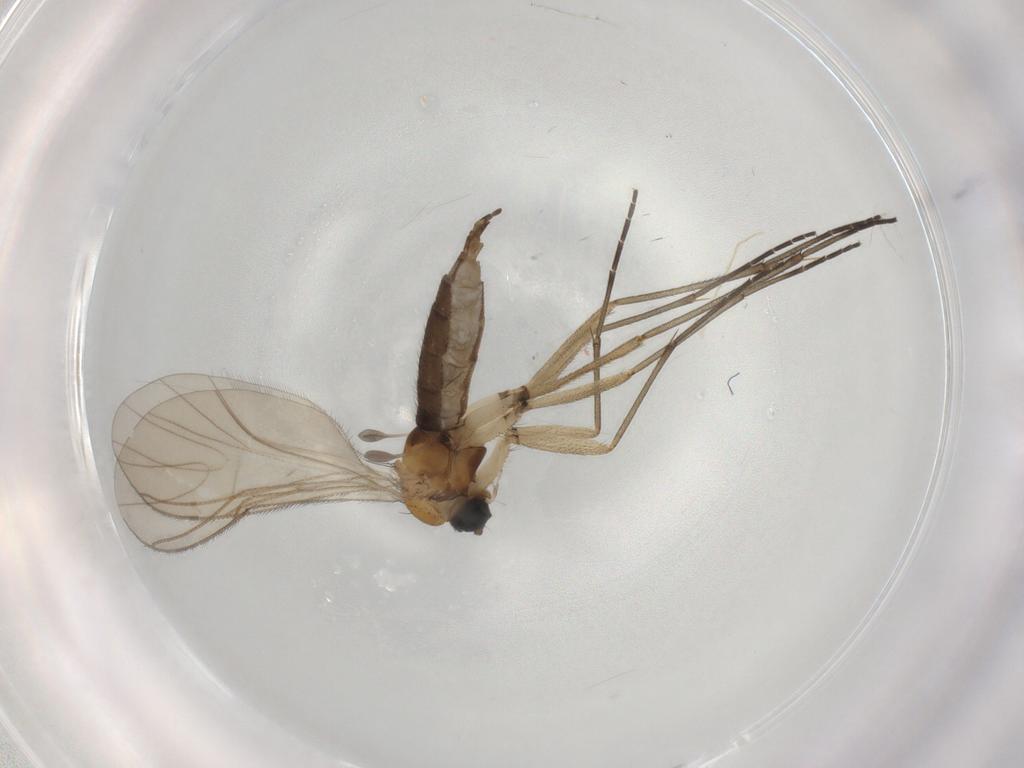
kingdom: Animalia
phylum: Arthropoda
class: Insecta
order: Diptera
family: Sciaridae
